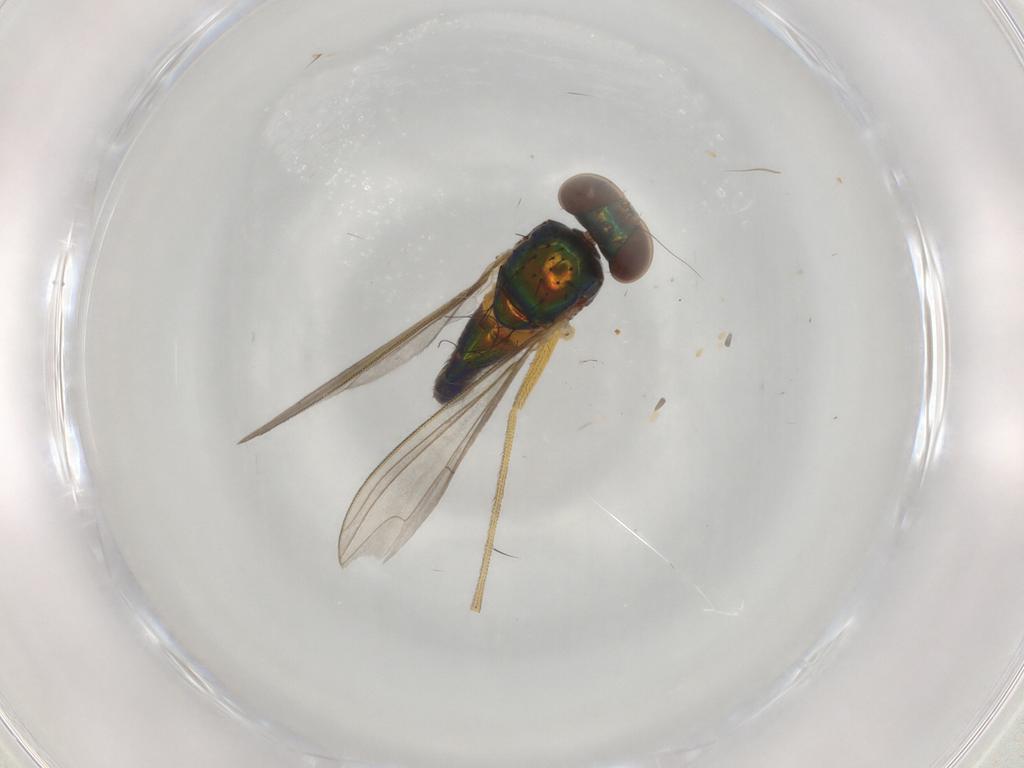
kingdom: Animalia
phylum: Arthropoda
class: Insecta
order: Diptera
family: Dolichopodidae
